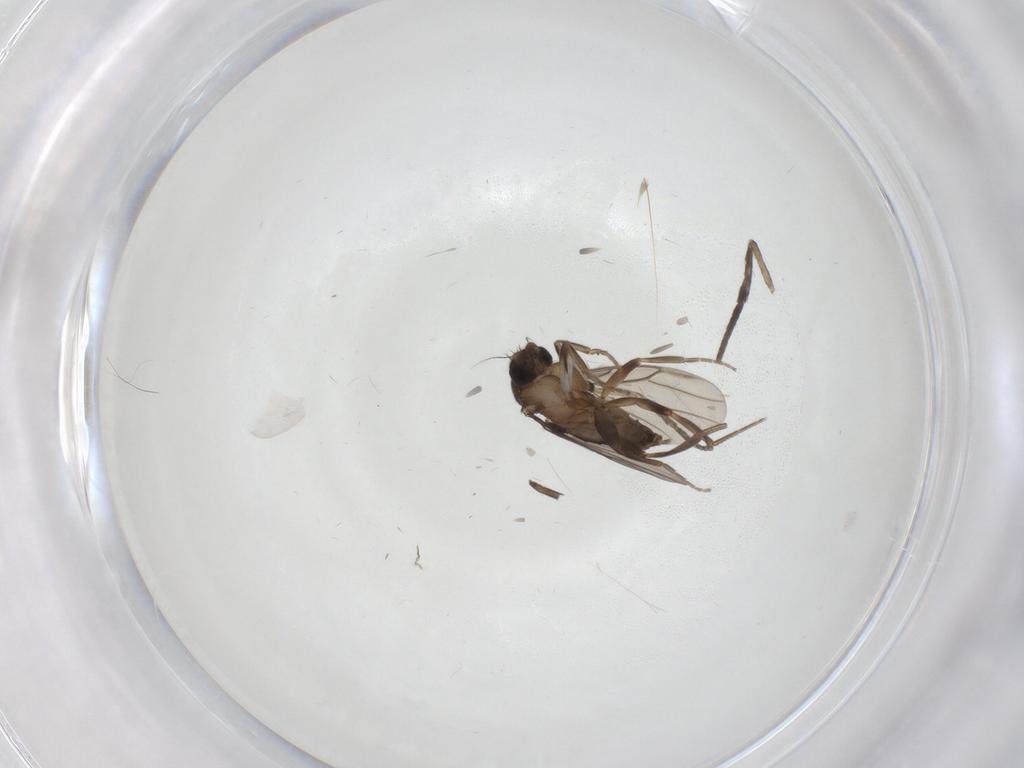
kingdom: Animalia
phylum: Arthropoda
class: Insecta
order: Diptera
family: Cecidomyiidae
